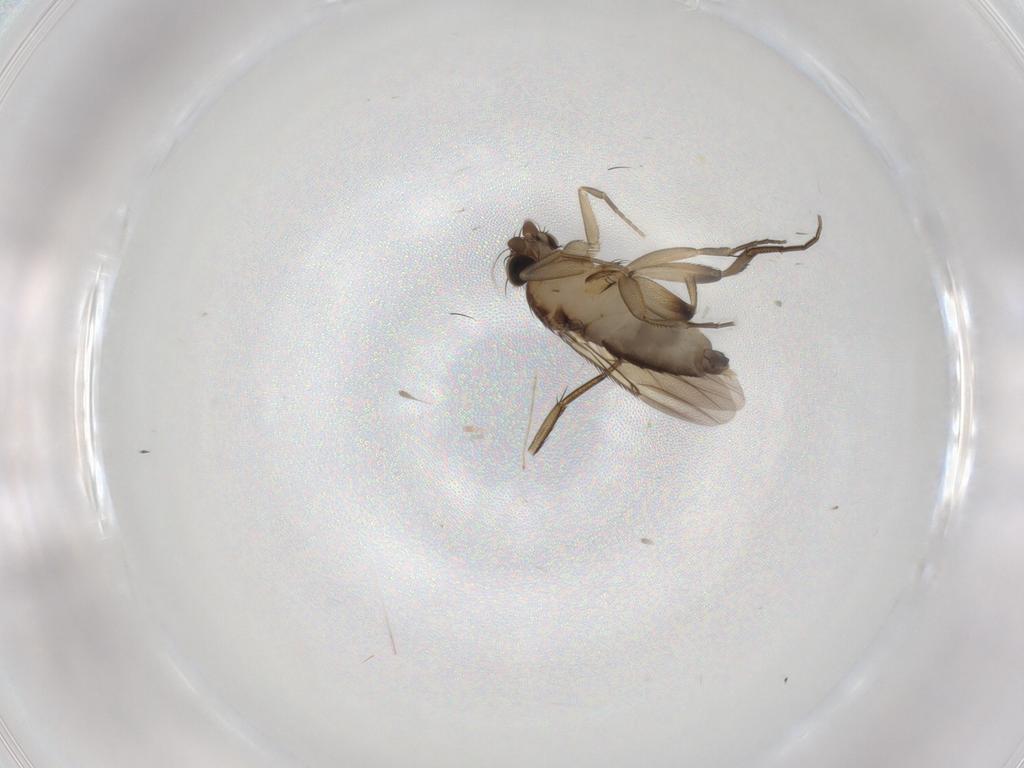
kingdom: Animalia
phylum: Arthropoda
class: Insecta
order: Diptera
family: Phoridae
